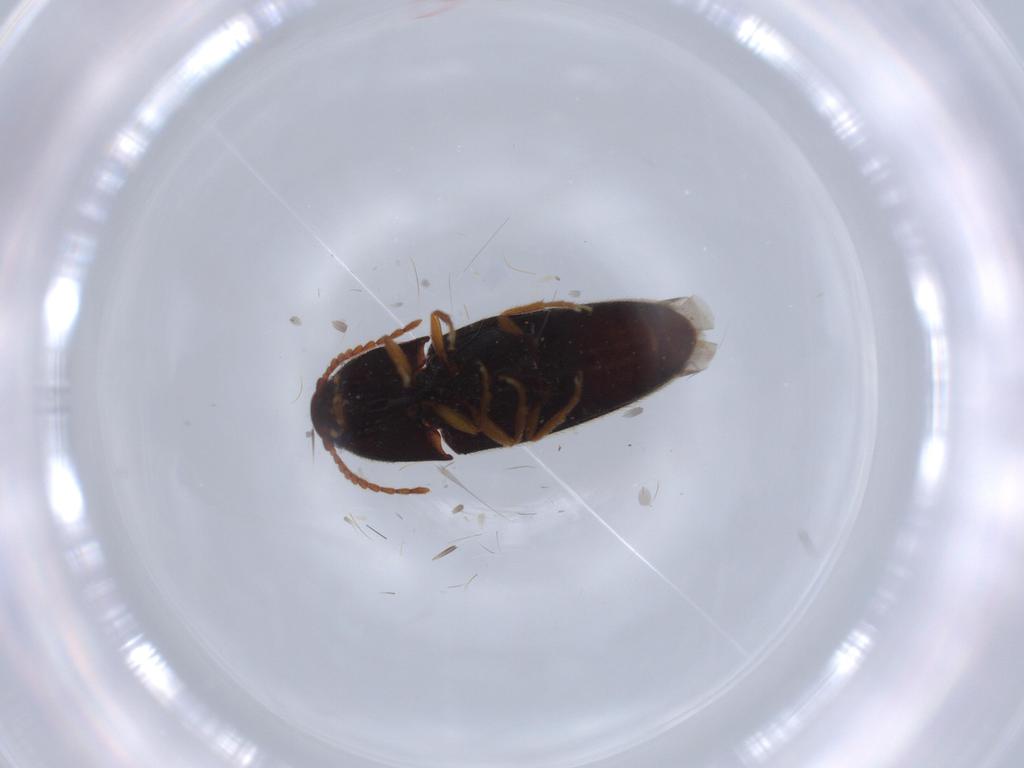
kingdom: Animalia
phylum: Arthropoda
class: Insecta
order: Coleoptera
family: Elateridae
